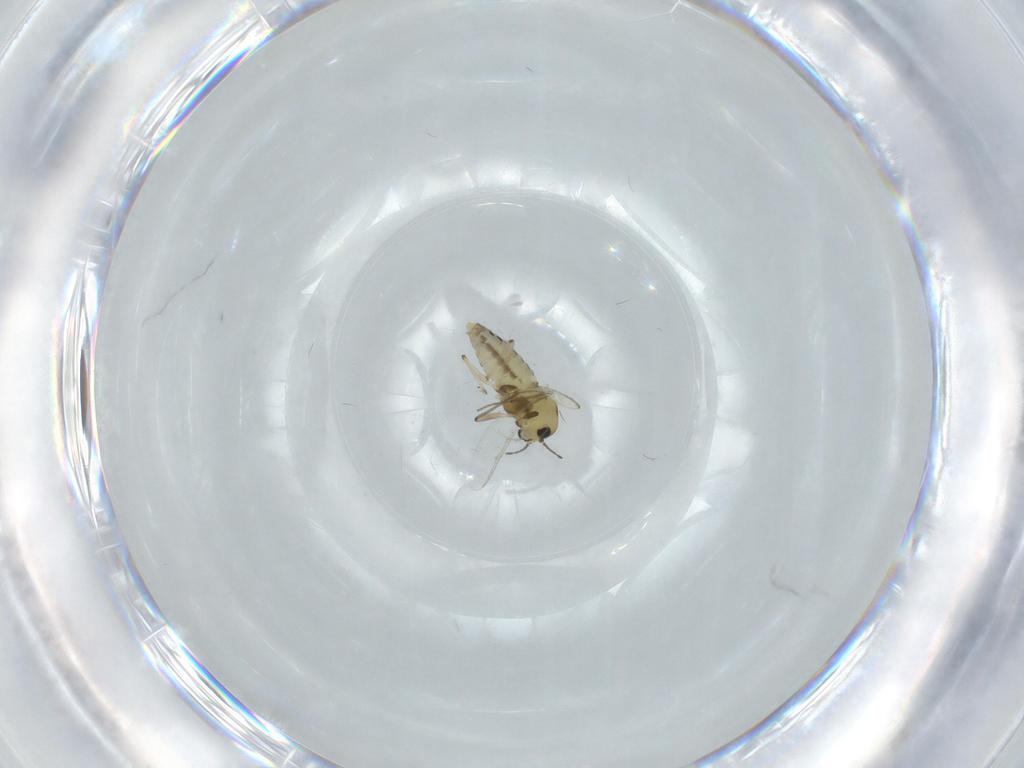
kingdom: Animalia
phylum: Arthropoda
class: Insecta
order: Diptera
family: Chironomidae
